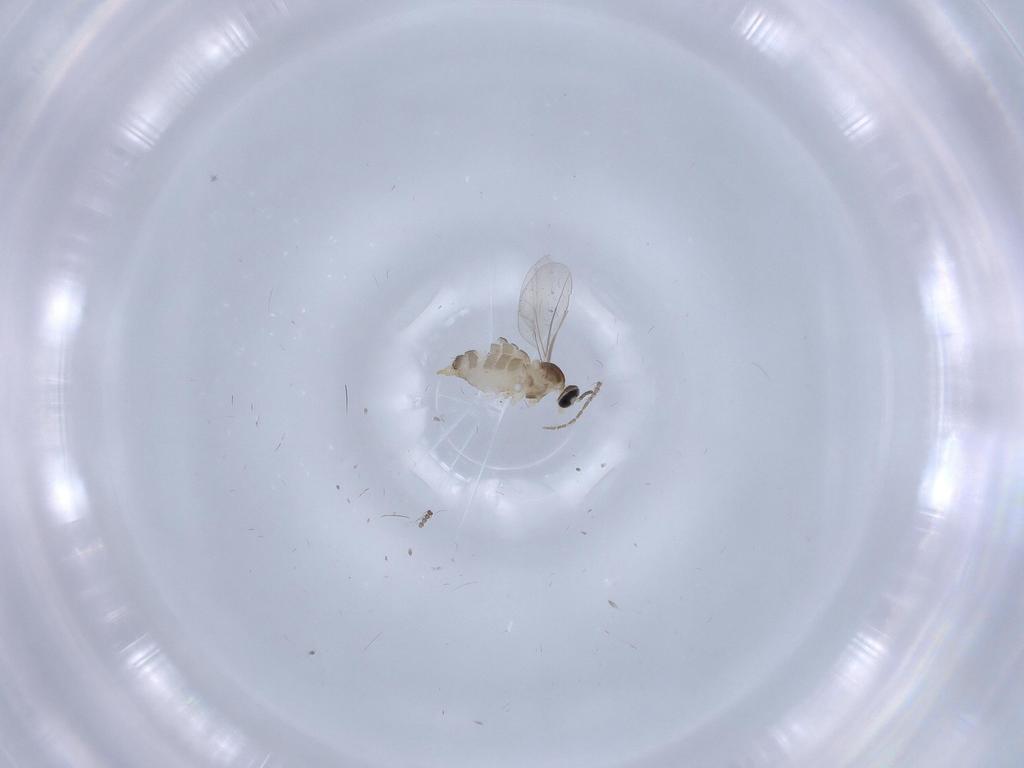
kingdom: Animalia
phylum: Arthropoda
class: Insecta
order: Diptera
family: Cecidomyiidae
